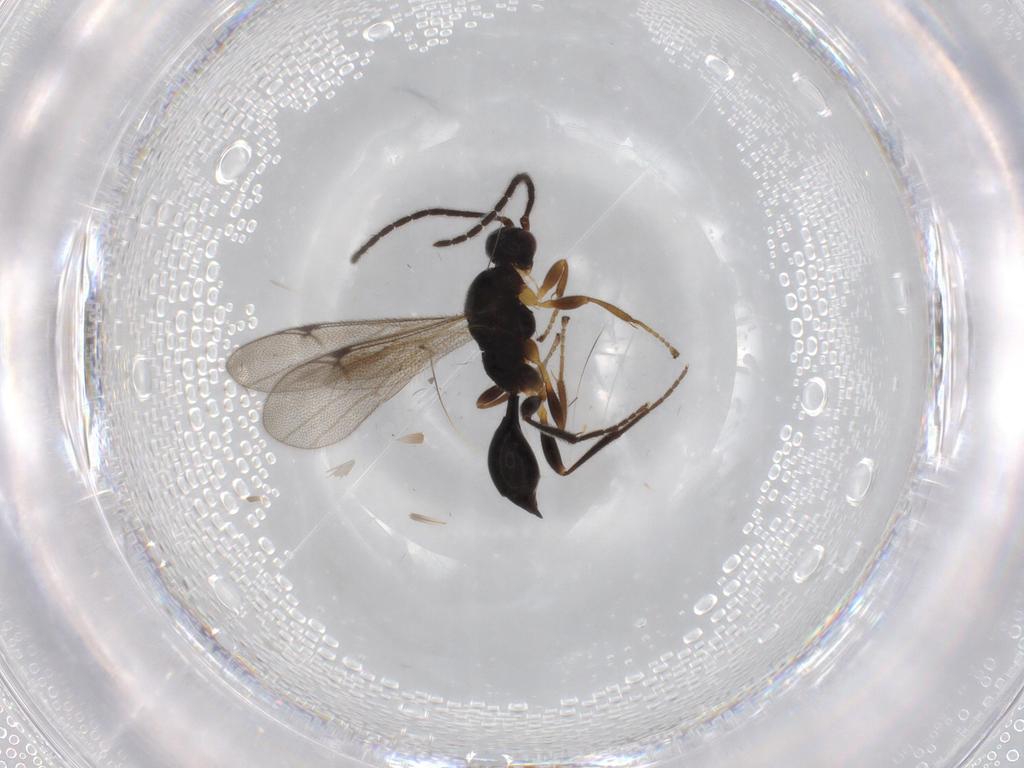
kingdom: Animalia
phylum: Arthropoda
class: Insecta
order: Hymenoptera
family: Proctotrupidae
